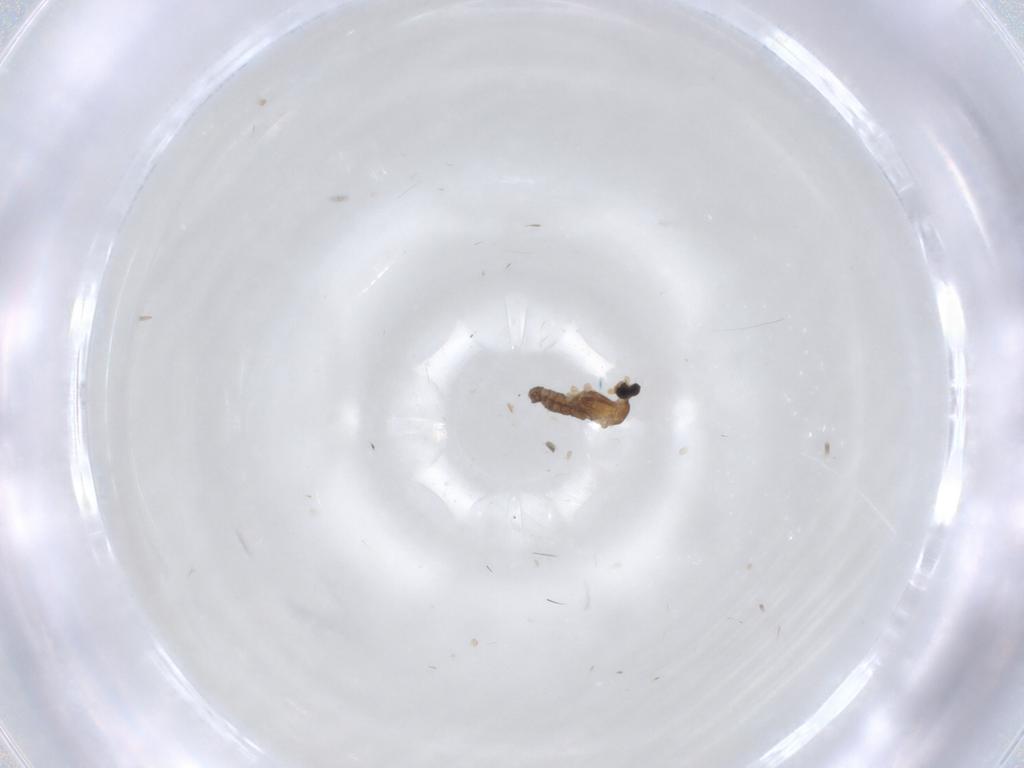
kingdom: Animalia
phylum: Arthropoda
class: Insecta
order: Diptera
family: Cecidomyiidae
